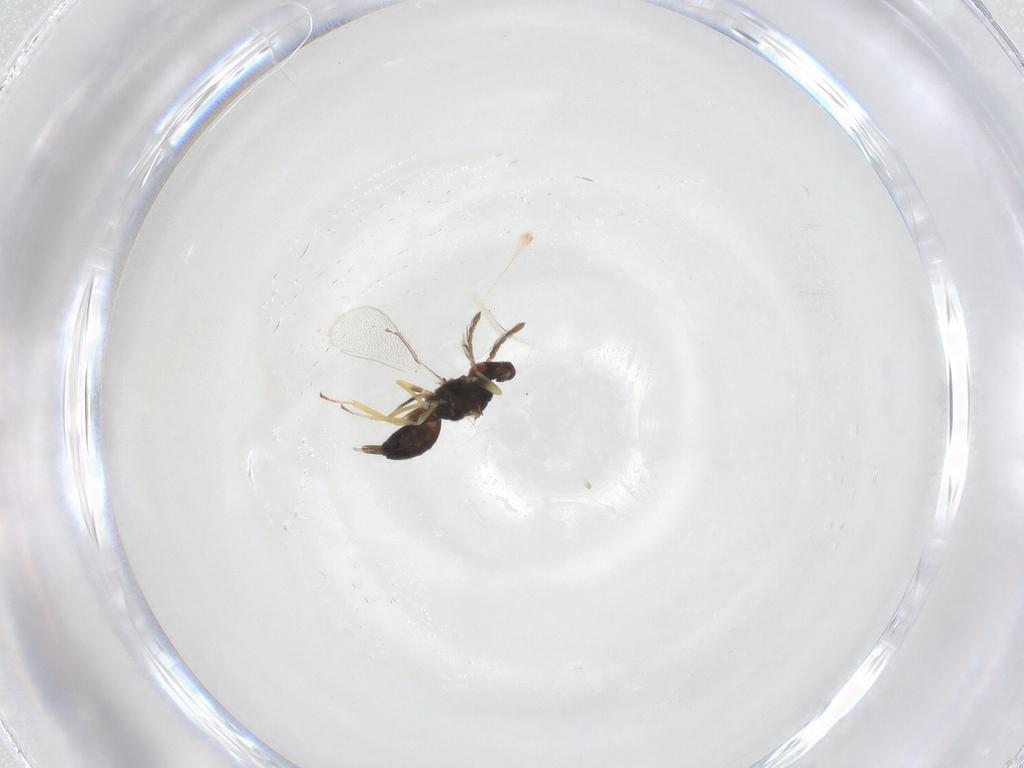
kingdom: Animalia
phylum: Arthropoda
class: Insecta
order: Hymenoptera
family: Eulophidae
